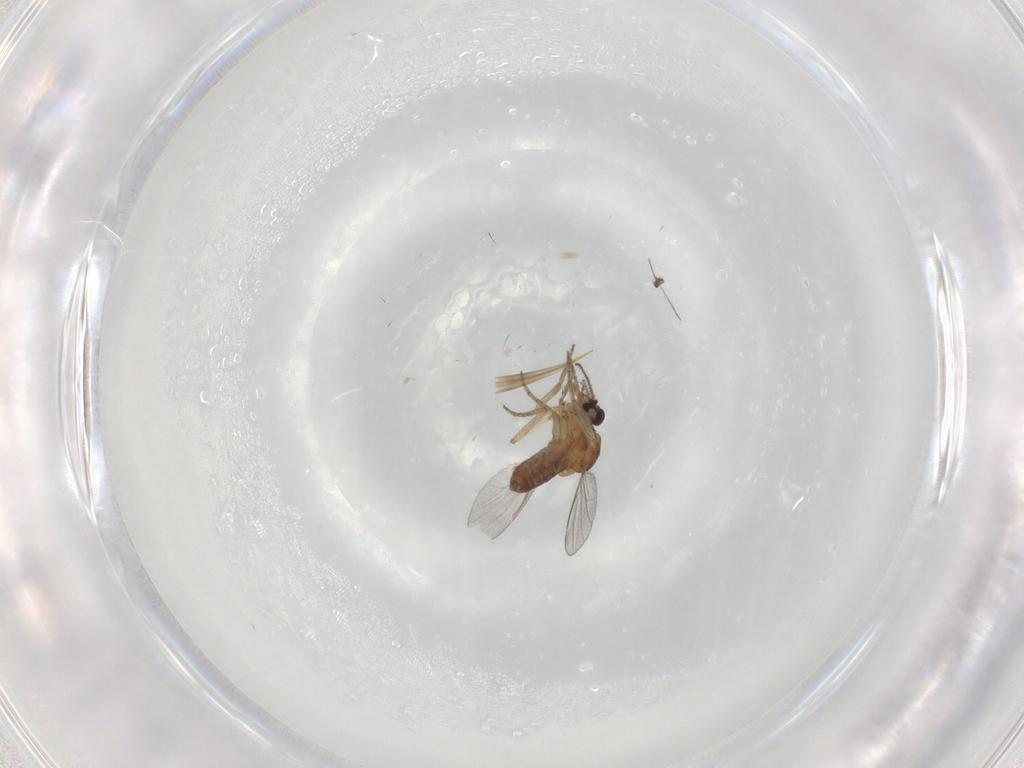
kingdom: Animalia
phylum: Arthropoda
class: Insecta
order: Diptera
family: Ceratopogonidae
